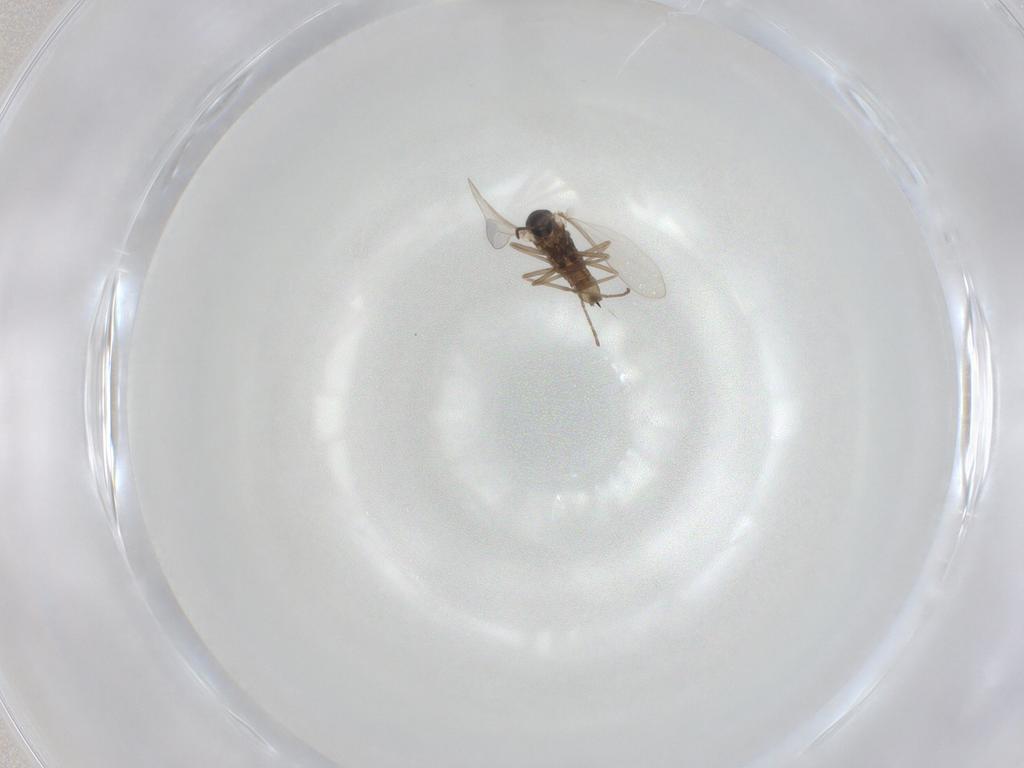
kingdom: Animalia
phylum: Arthropoda
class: Insecta
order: Diptera
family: Cecidomyiidae
